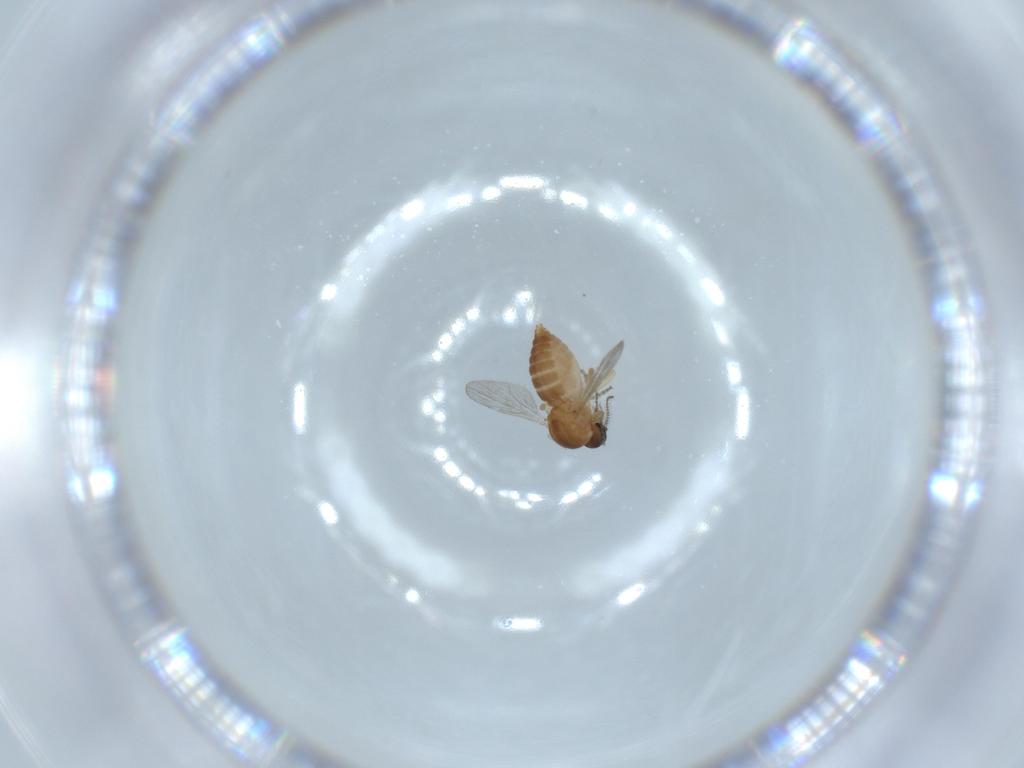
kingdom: Animalia
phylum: Arthropoda
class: Insecta
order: Diptera
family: Ceratopogonidae
